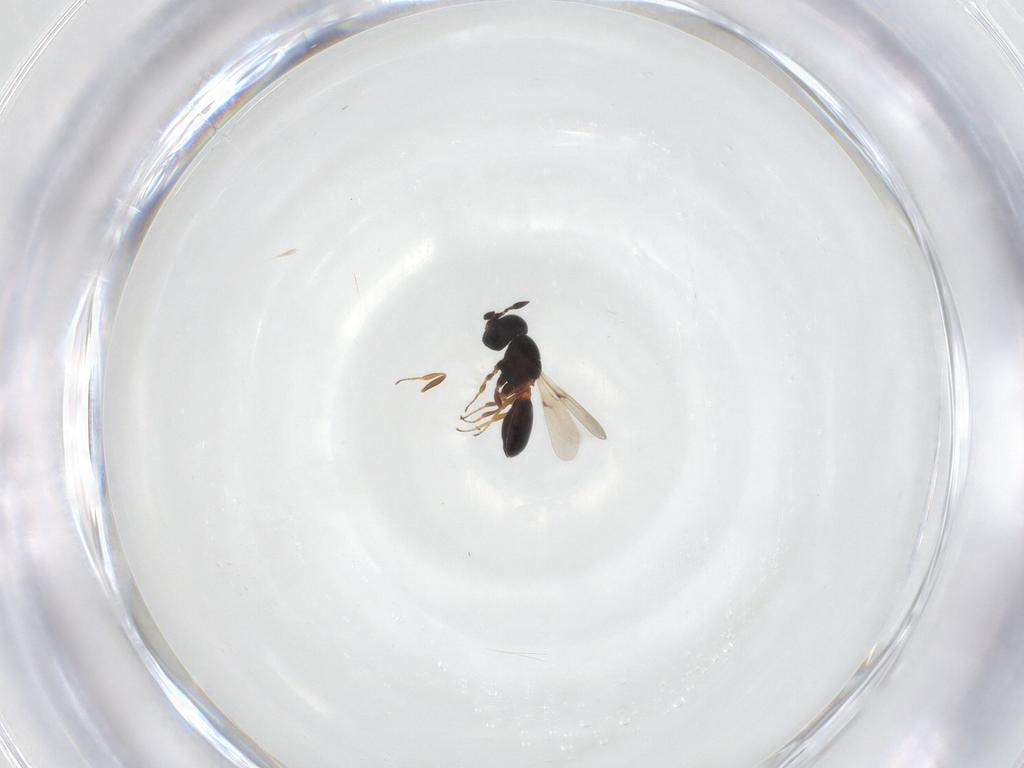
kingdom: Animalia
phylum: Arthropoda
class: Insecta
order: Hymenoptera
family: Scelionidae
